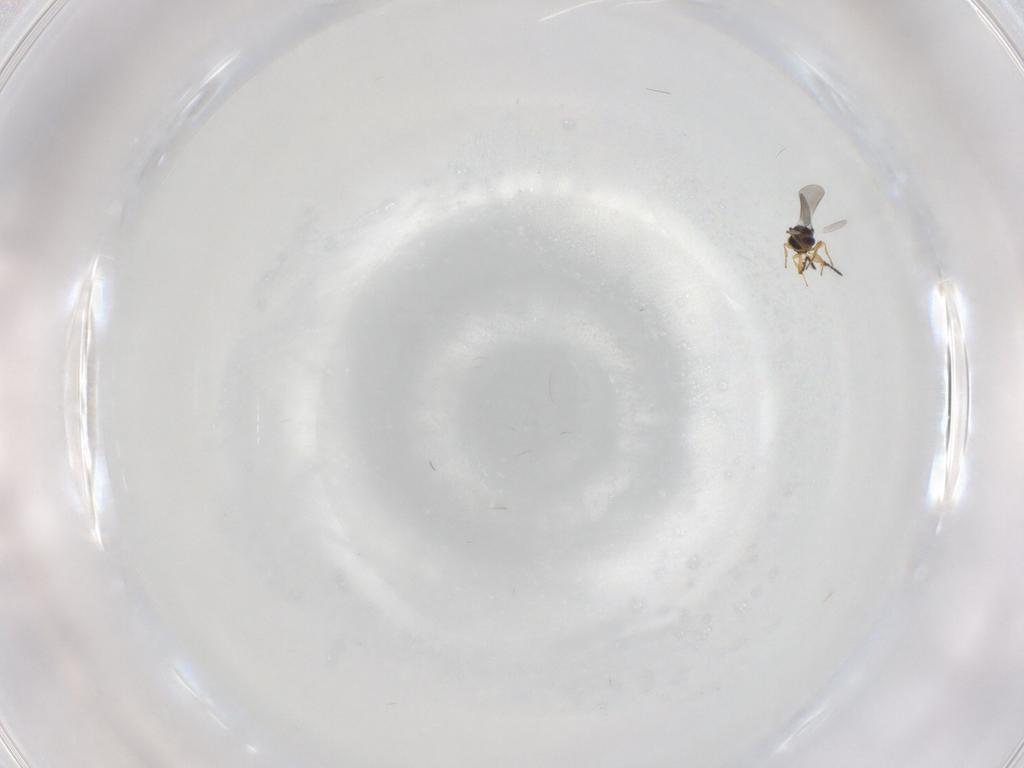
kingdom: Animalia
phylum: Arthropoda
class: Insecta
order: Hymenoptera
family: Platygastridae
